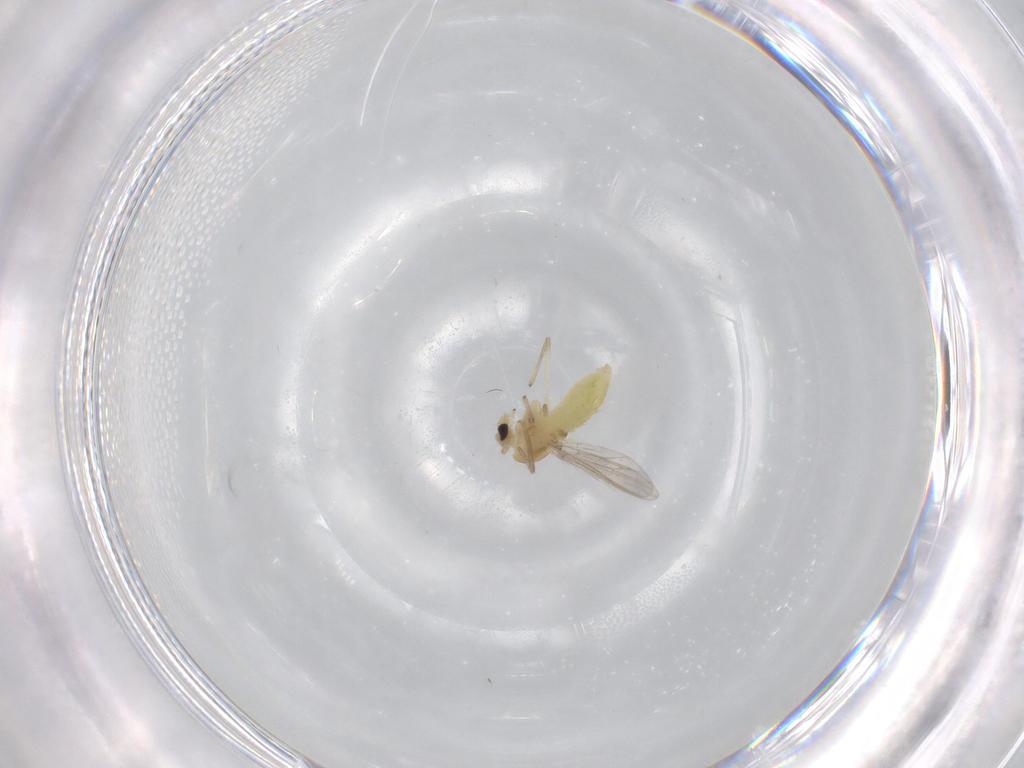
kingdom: Animalia
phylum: Arthropoda
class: Insecta
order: Diptera
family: Chironomidae
